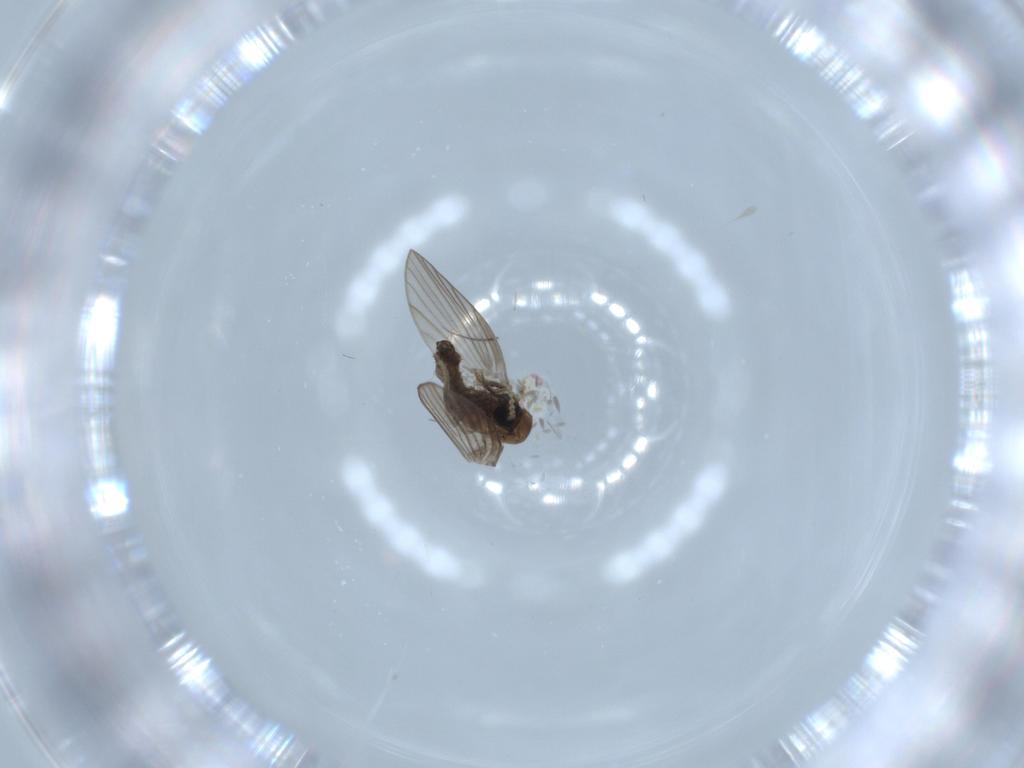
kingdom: Animalia
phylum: Arthropoda
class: Insecta
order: Diptera
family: Psychodidae
